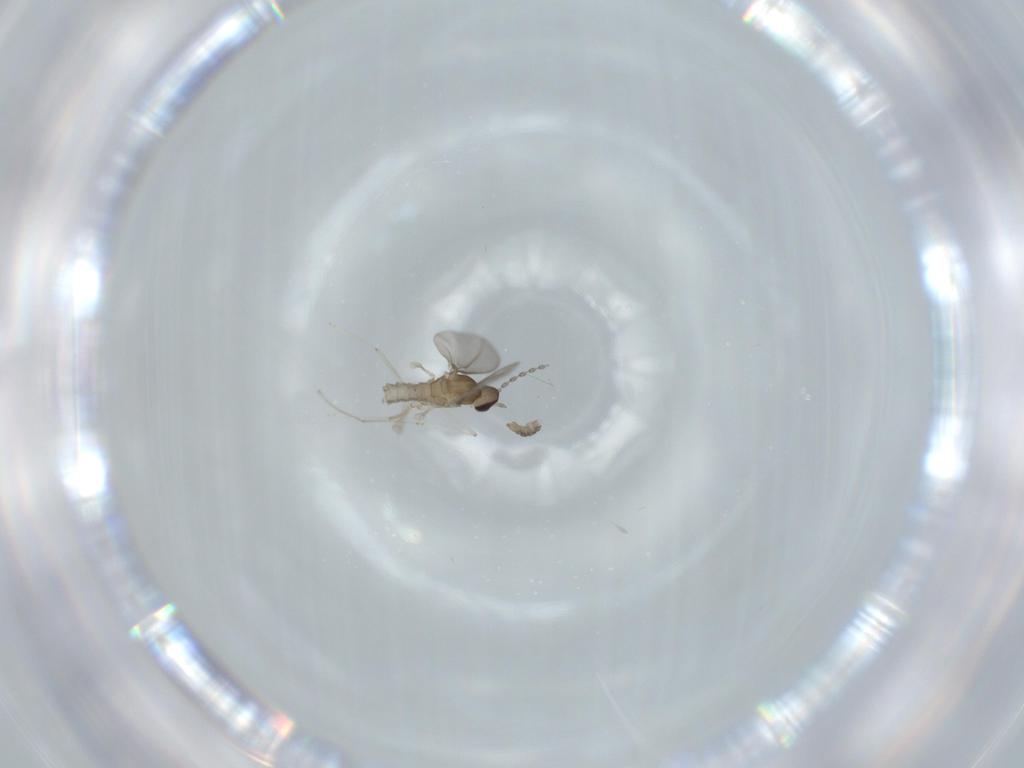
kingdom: Animalia
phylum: Arthropoda
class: Insecta
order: Diptera
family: Cecidomyiidae
